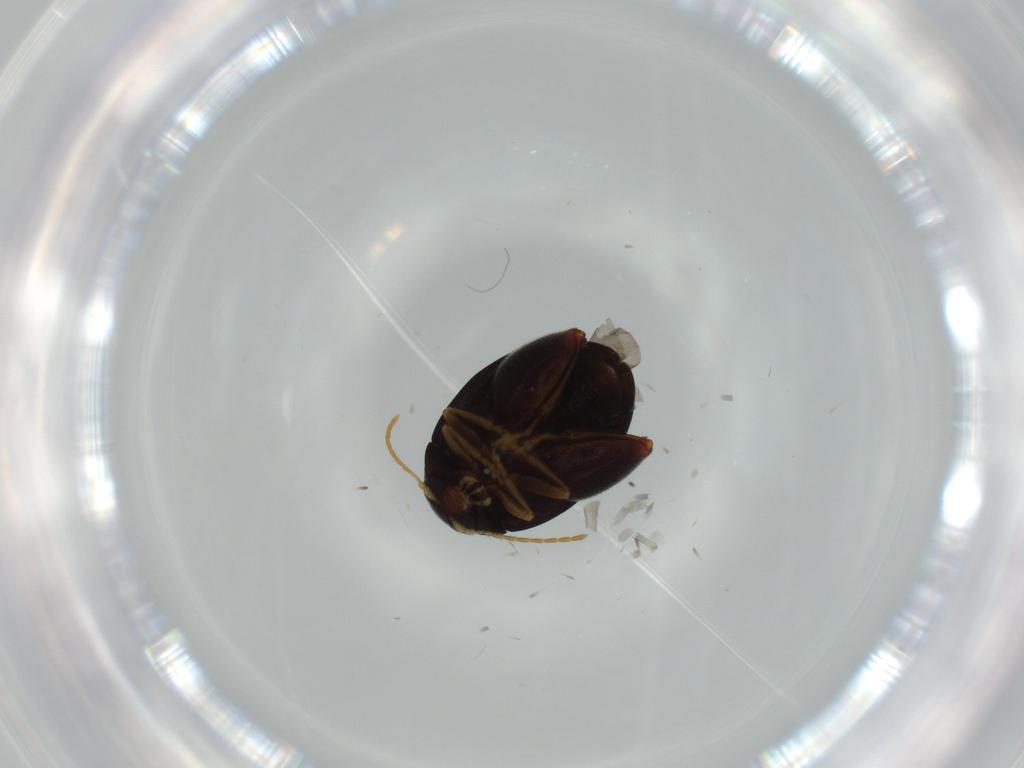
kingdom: Animalia
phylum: Arthropoda
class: Insecta
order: Coleoptera
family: Chrysomelidae
